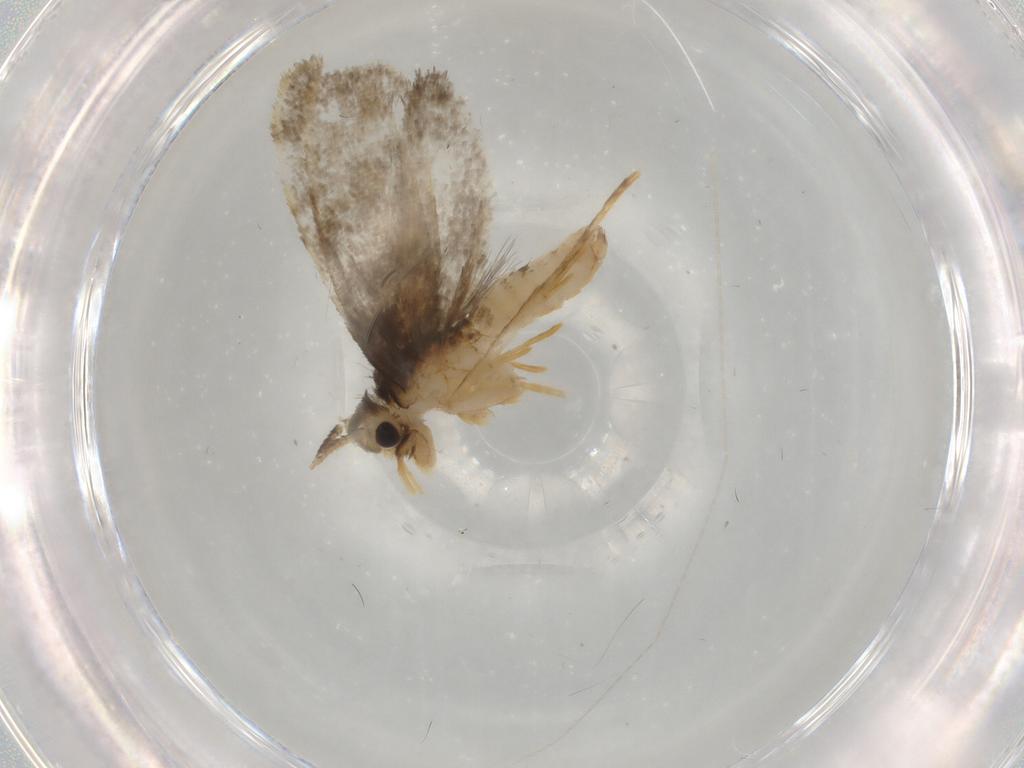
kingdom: Animalia
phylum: Arthropoda
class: Insecta
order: Lepidoptera
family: Psychidae
